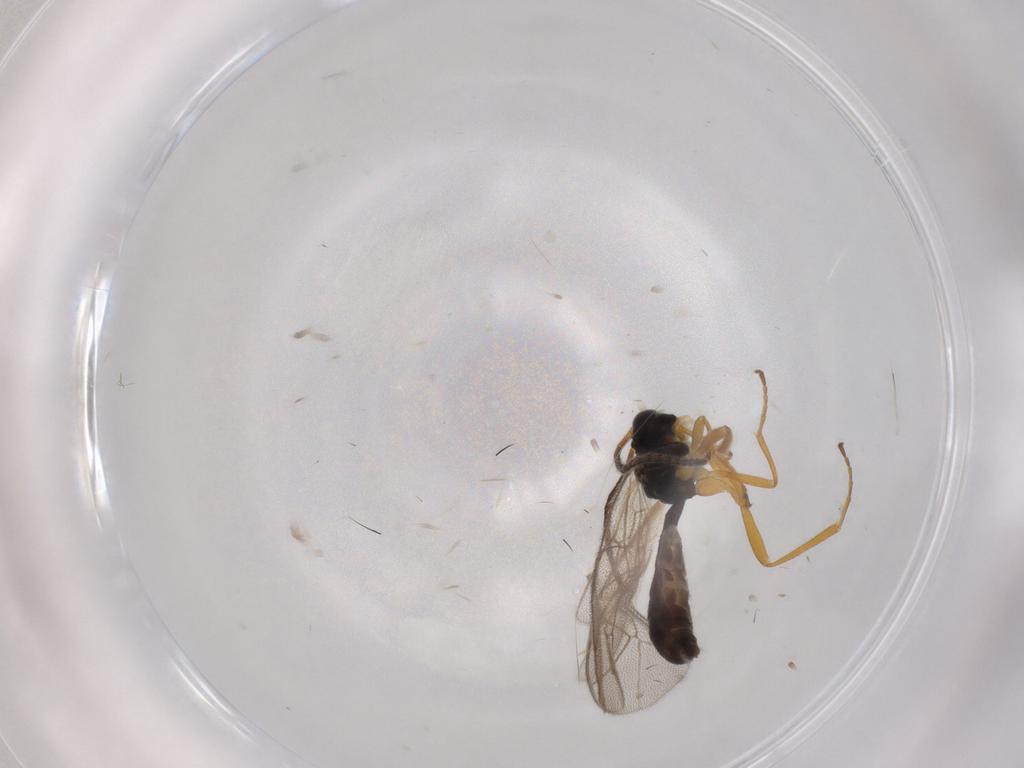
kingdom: Animalia
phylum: Arthropoda
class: Insecta
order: Hymenoptera
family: Ichneumonidae
